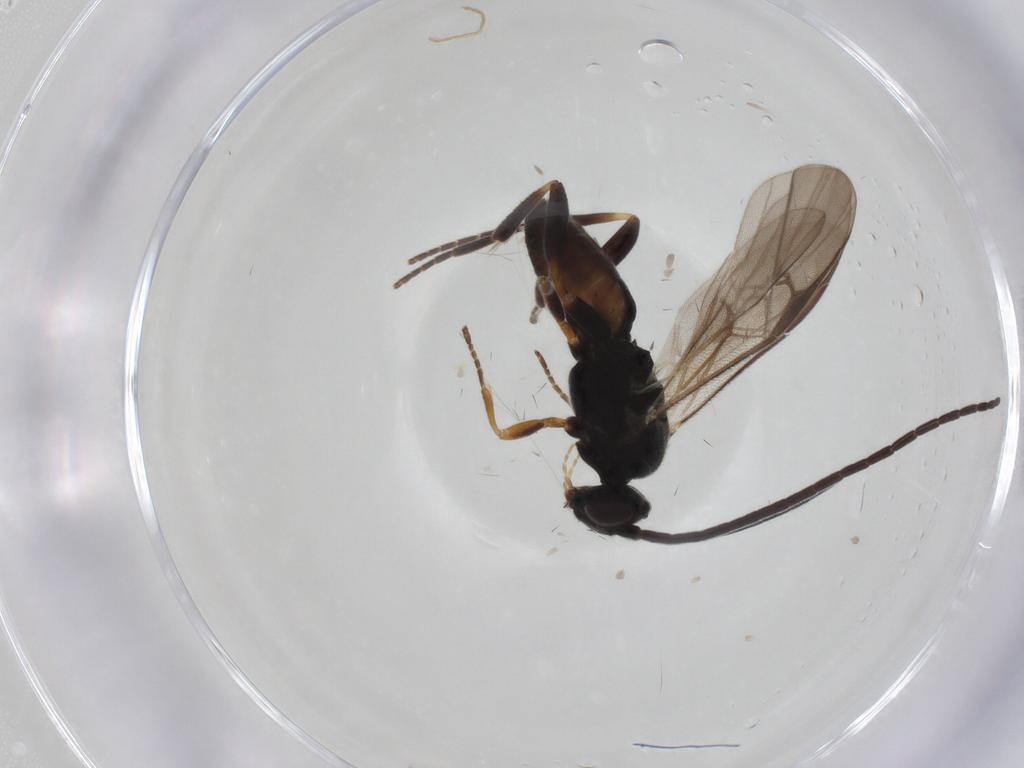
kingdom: Animalia
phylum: Arthropoda
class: Insecta
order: Hymenoptera
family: Braconidae
